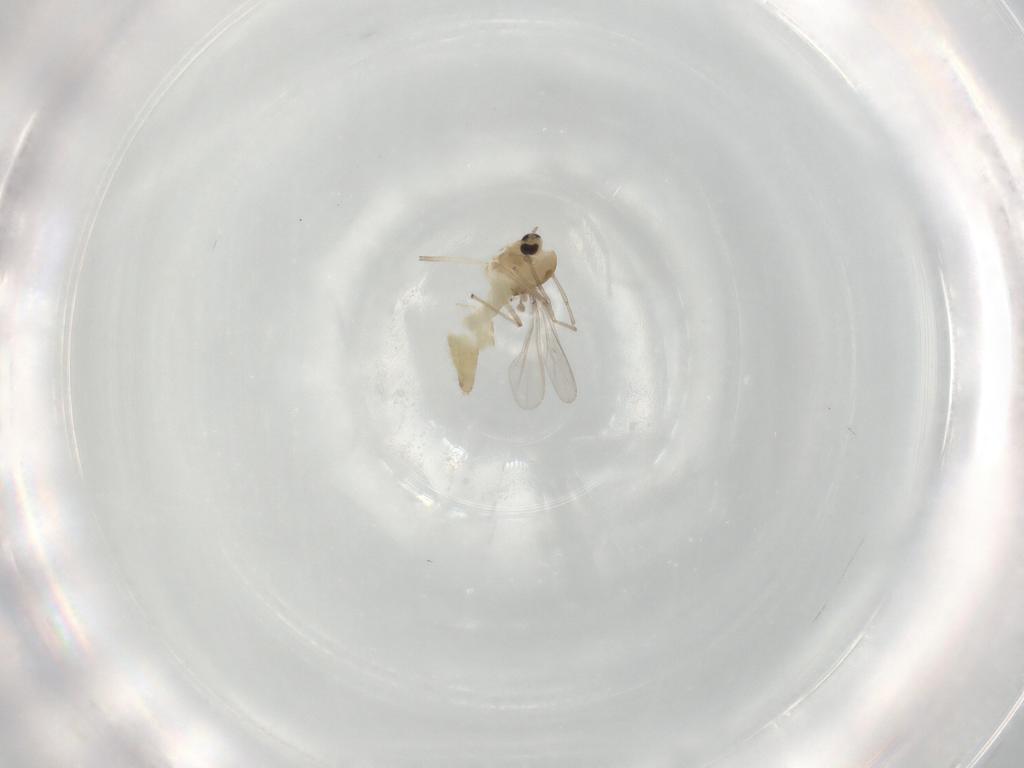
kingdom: Animalia
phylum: Arthropoda
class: Insecta
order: Diptera
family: Chironomidae
